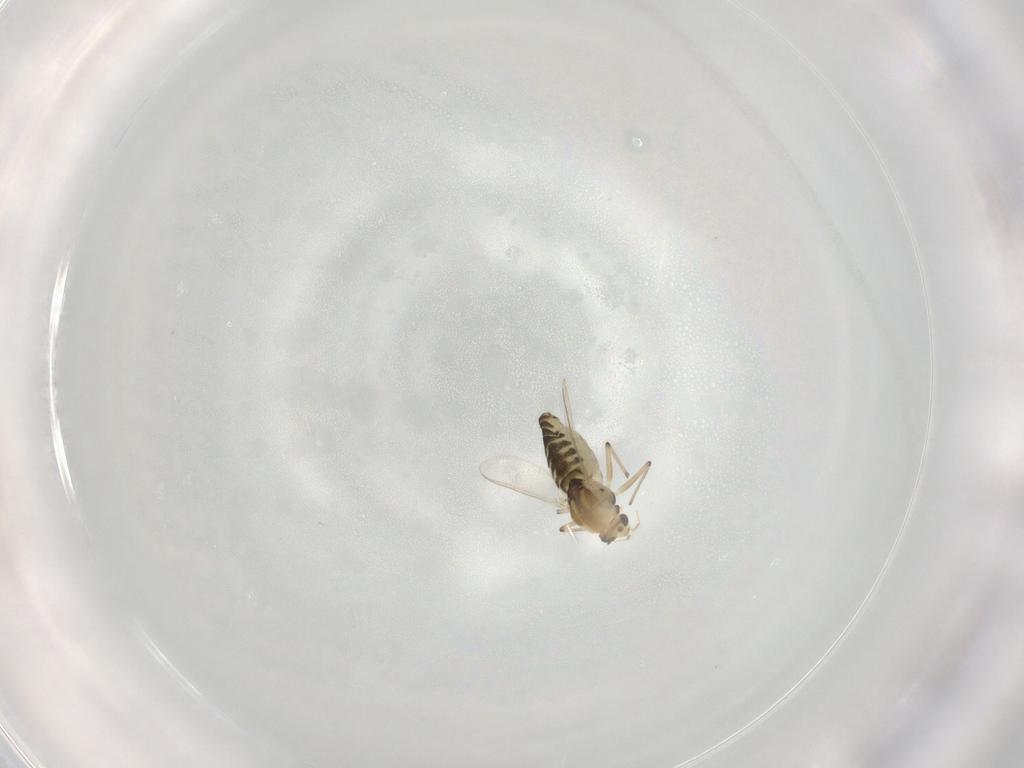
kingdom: Animalia
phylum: Arthropoda
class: Insecta
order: Diptera
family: Chironomidae
